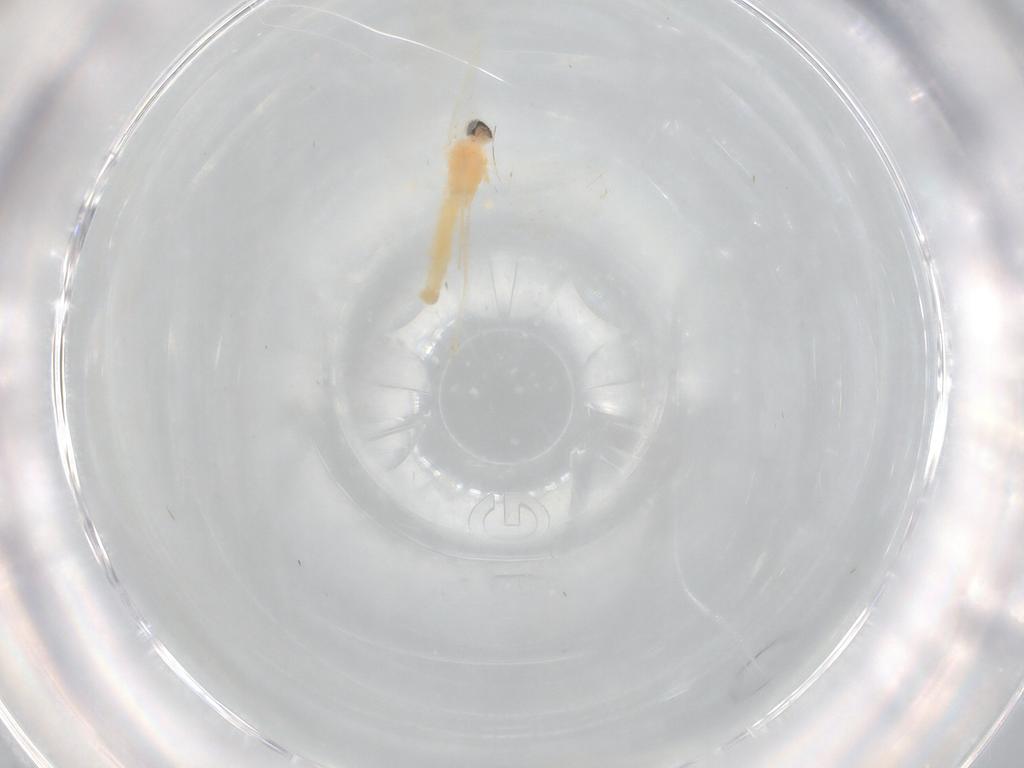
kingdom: Animalia
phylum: Arthropoda
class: Insecta
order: Diptera
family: Cecidomyiidae
